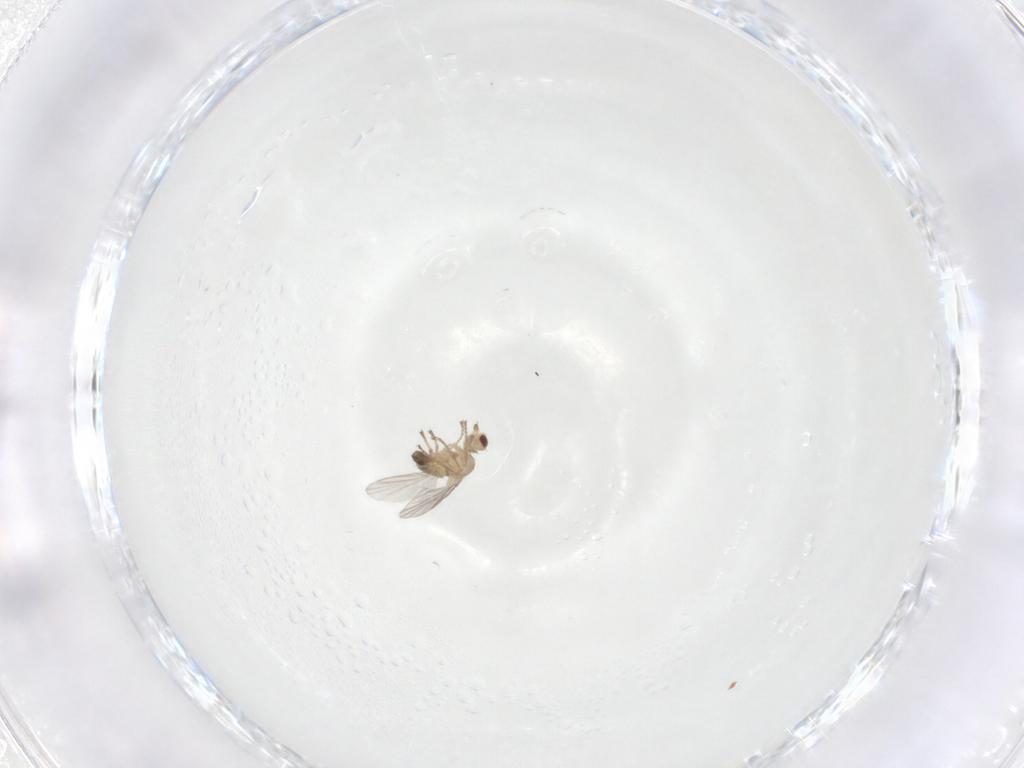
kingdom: Animalia
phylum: Arthropoda
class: Insecta
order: Diptera
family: Agromyzidae
